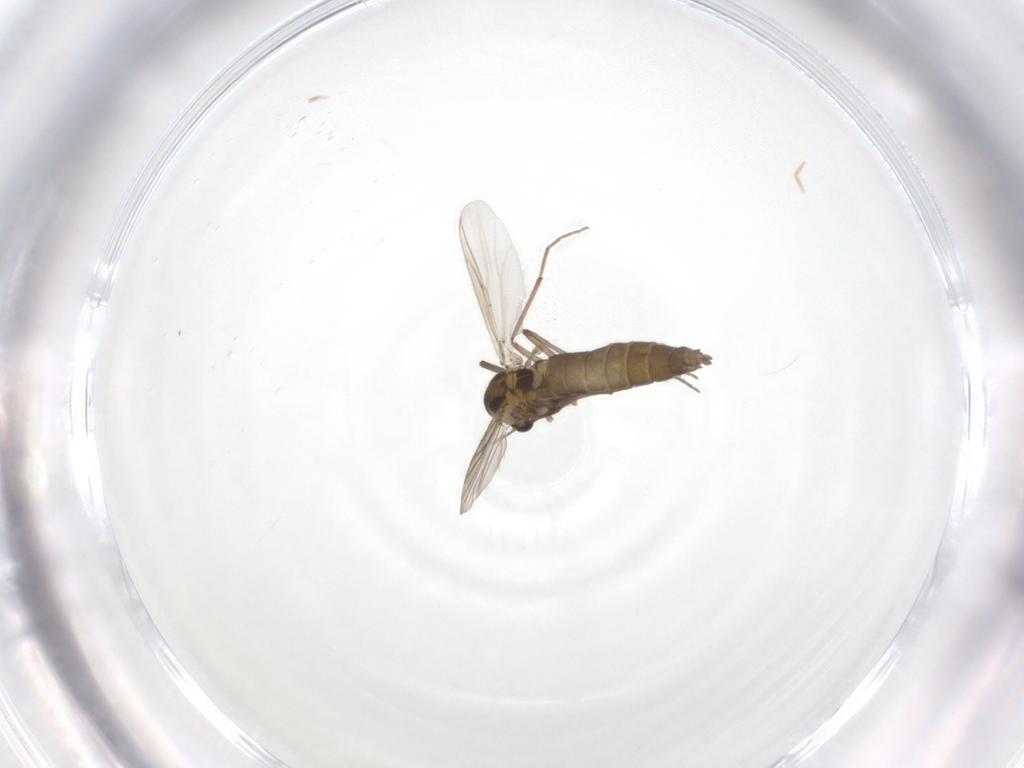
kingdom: Animalia
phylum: Arthropoda
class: Insecta
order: Diptera
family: Chironomidae
